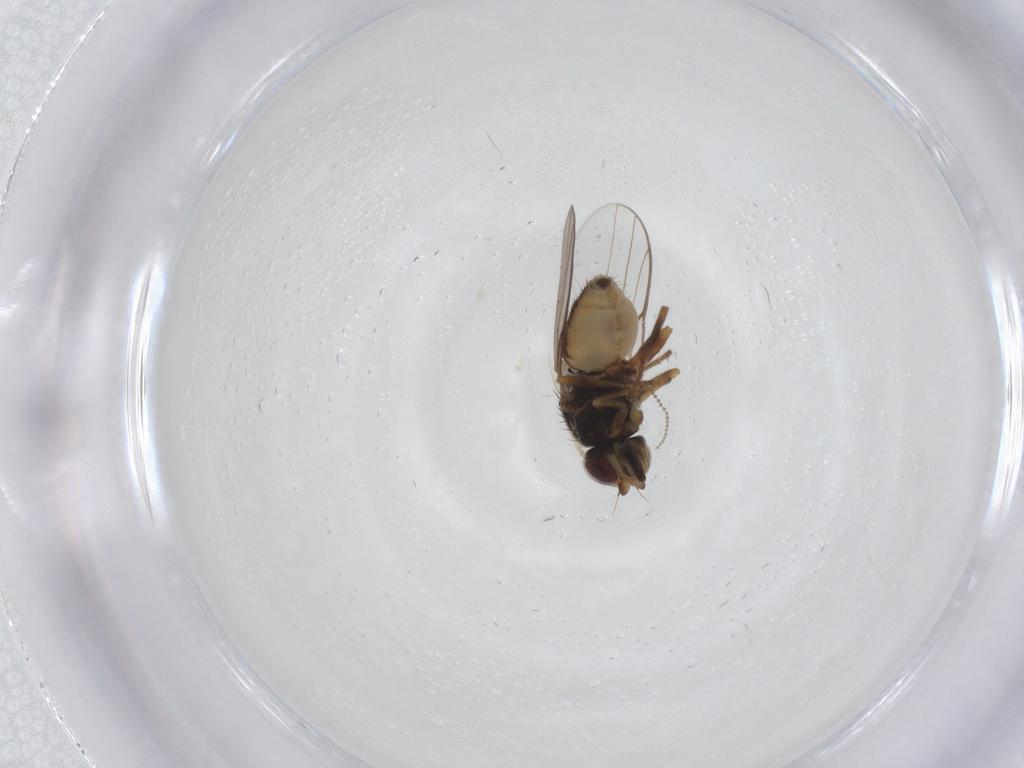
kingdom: Animalia
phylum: Arthropoda
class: Insecta
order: Diptera
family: Chloropidae
